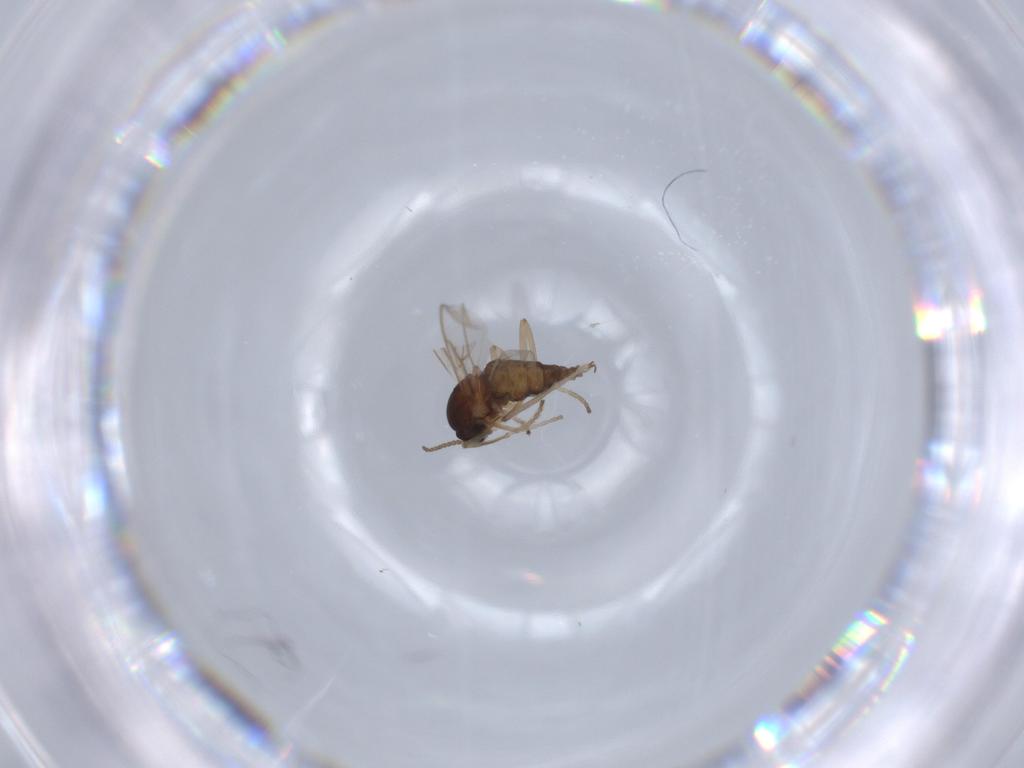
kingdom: Animalia
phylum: Arthropoda
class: Insecta
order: Diptera
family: Cecidomyiidae
